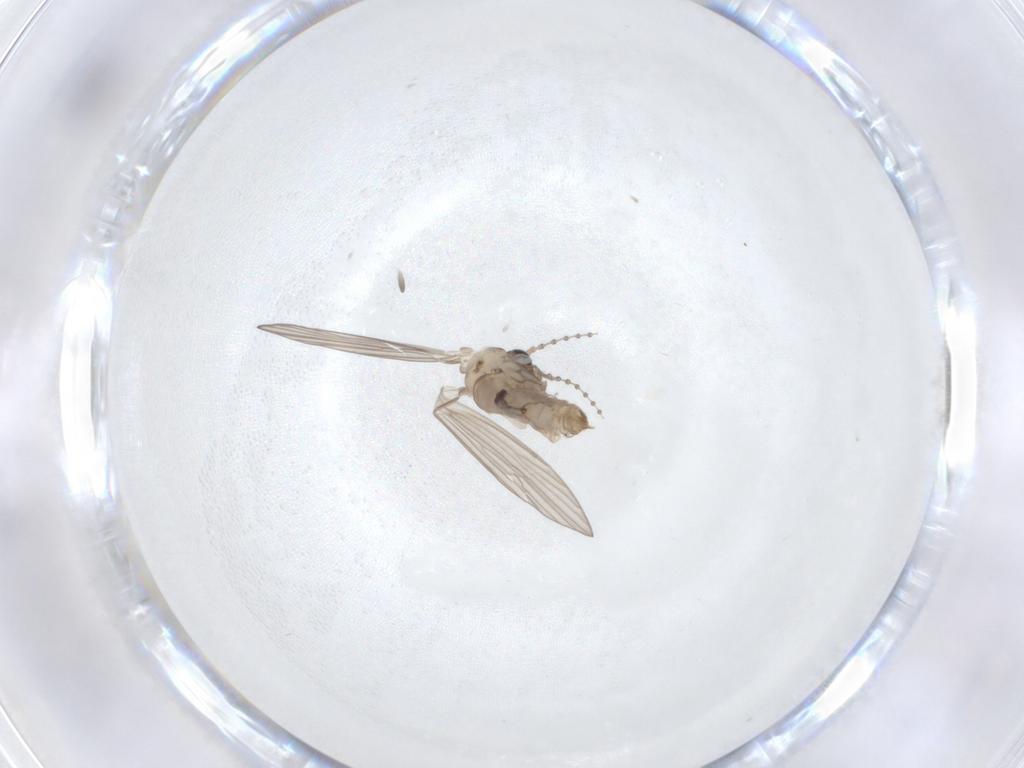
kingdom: Animalia
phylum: Arthropoda
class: Insecta
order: Diptera
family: Psychodidae
